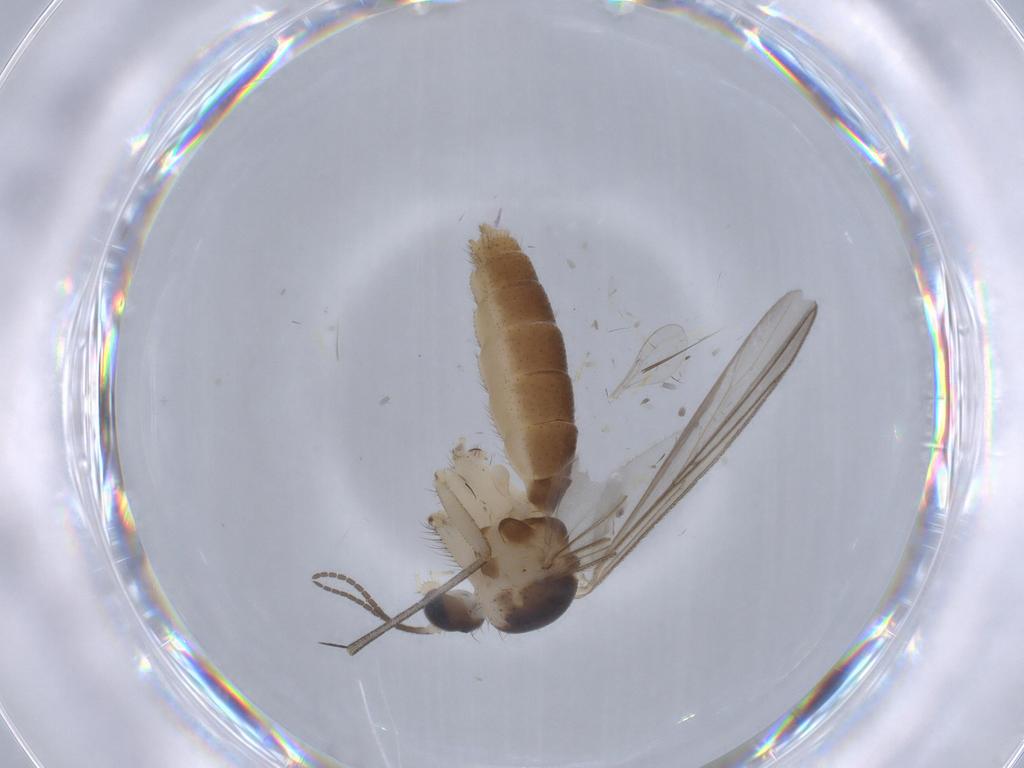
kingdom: Animalia
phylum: Arthropoda
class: Insecta
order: Diptera
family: Mycetophilidae
